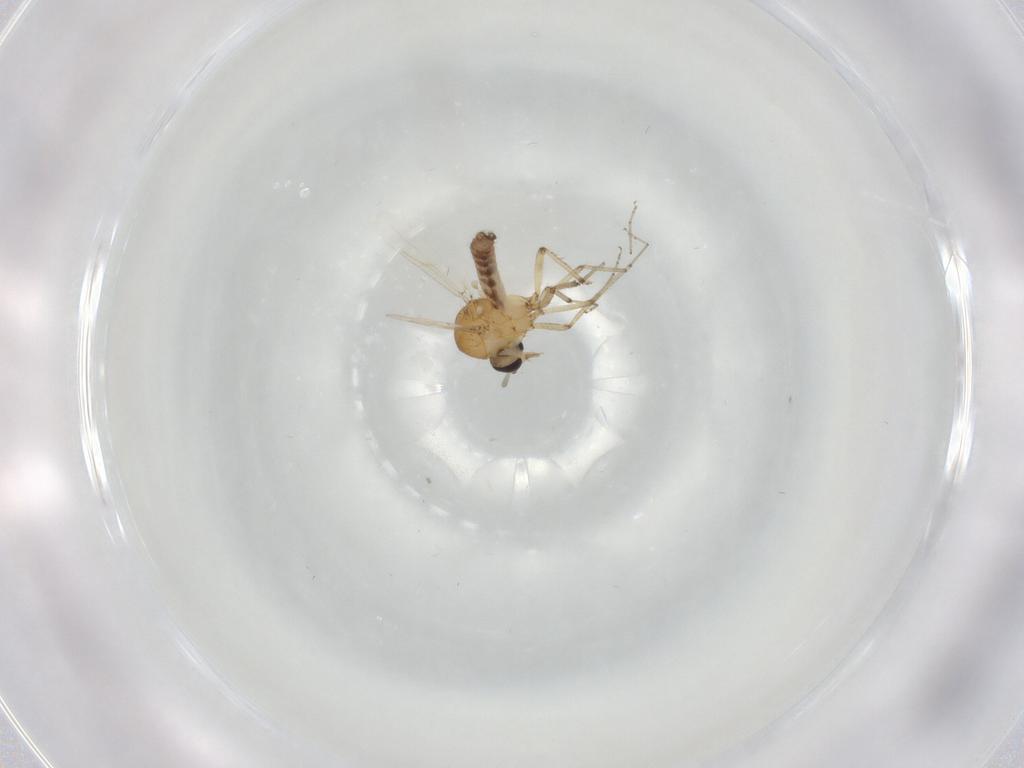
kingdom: Animalia
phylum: Arthropoda
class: Insecta
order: Diptera
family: Ceratopogonidae
